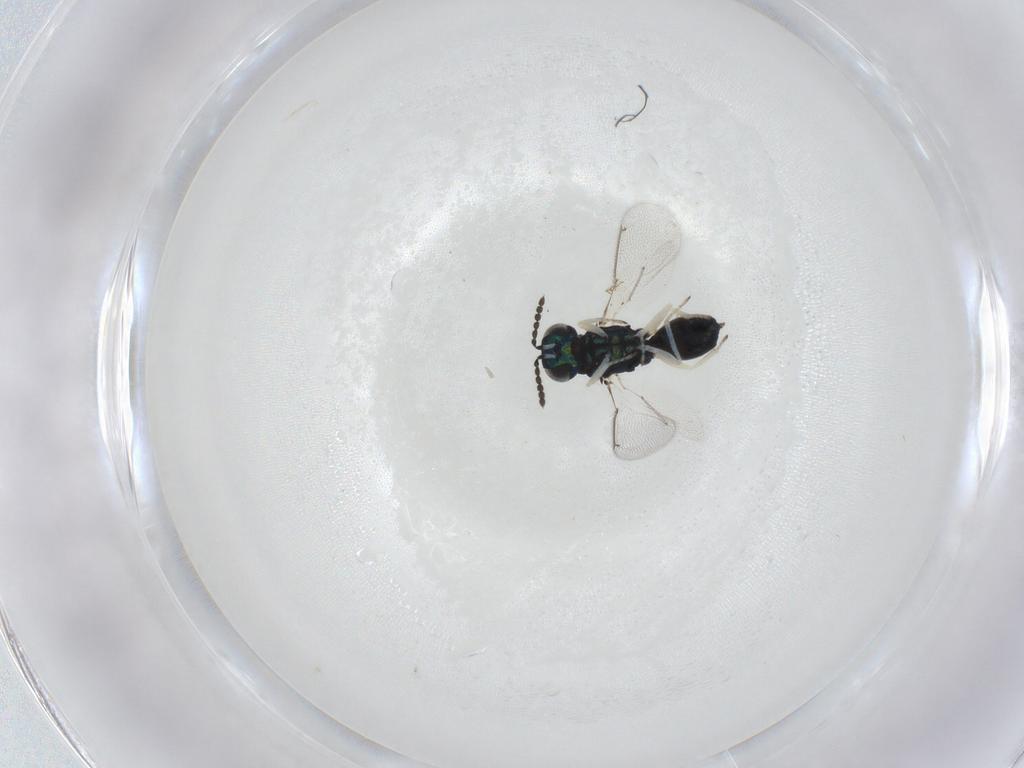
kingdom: Animalia
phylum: Arthropoda
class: Insecta
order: Hymenoptera
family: Eulophidae
